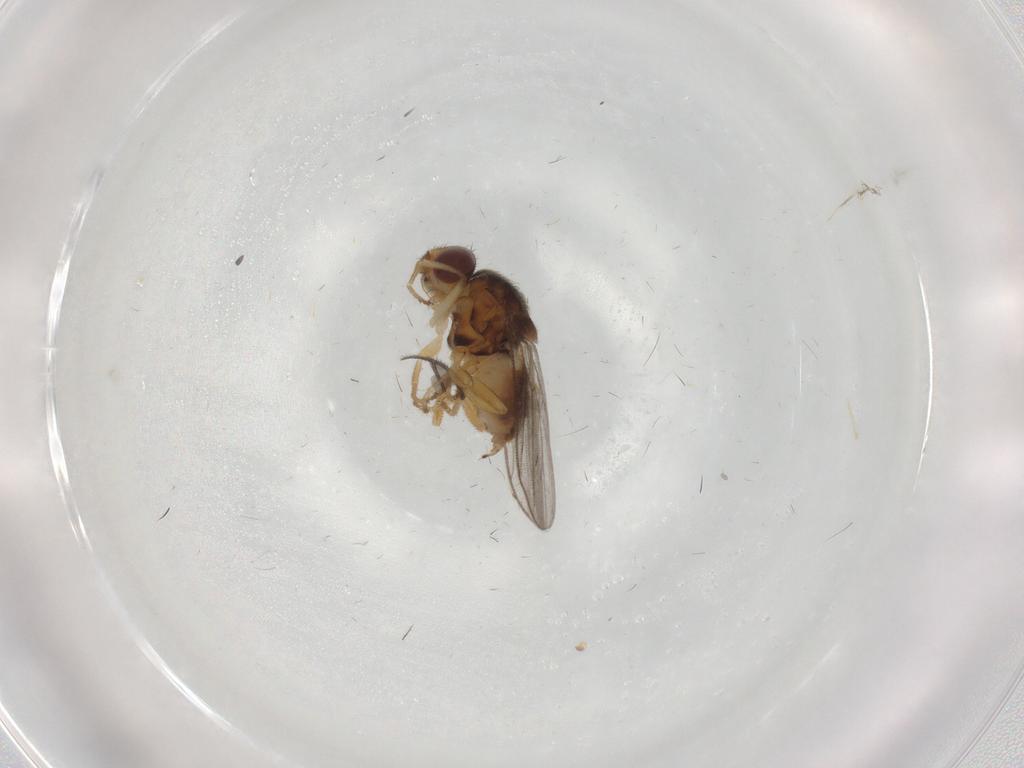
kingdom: Animalia
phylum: Arthropoda
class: Insecta
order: Diptera
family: Chloropidae
